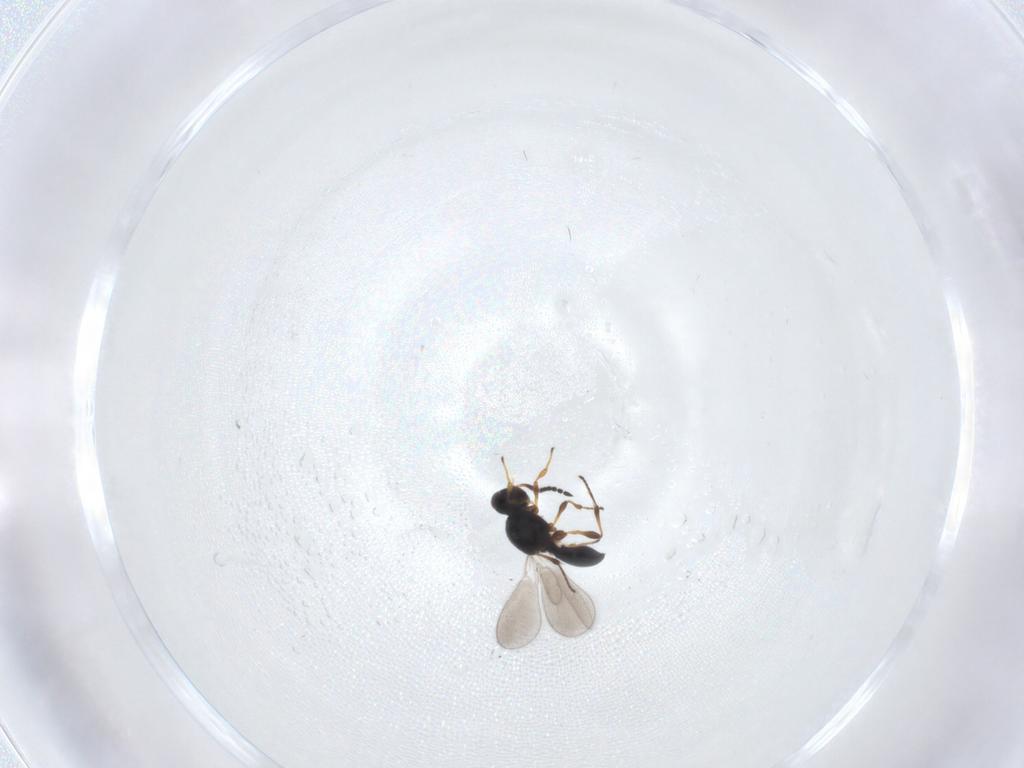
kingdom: Animalia
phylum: Arthropoda
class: Insecta
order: Hymenoptera
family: Platygastridae
